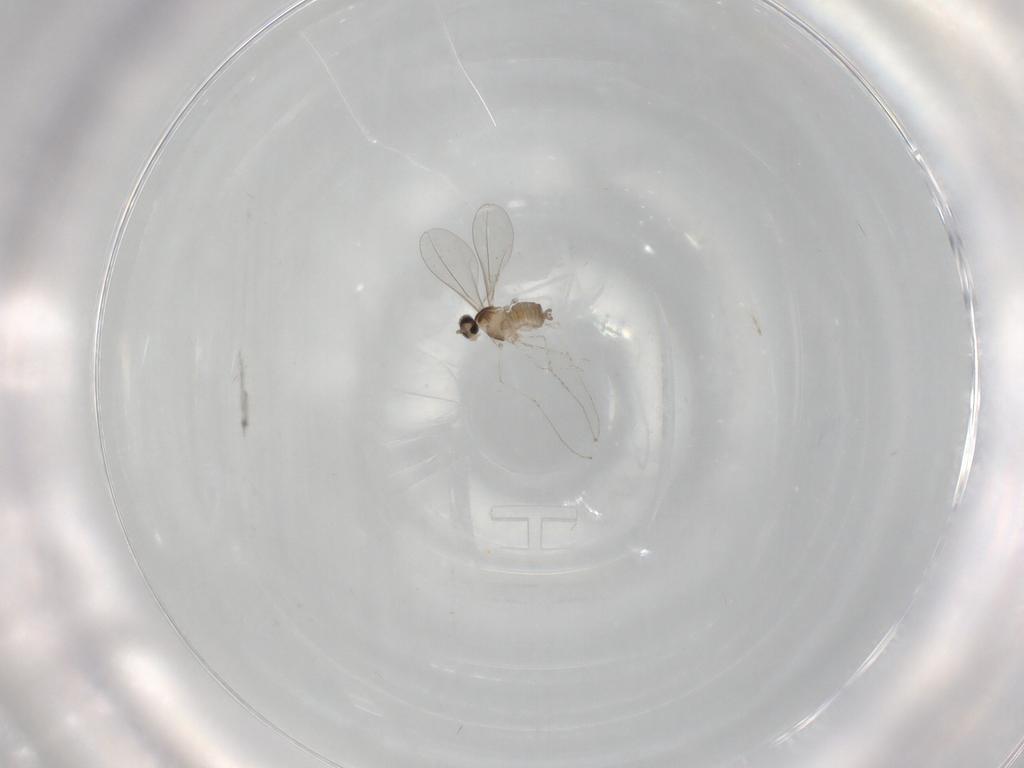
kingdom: Animalia
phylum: Arthropoda
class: Insecta
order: Diptera
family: Cecidomyiidae
